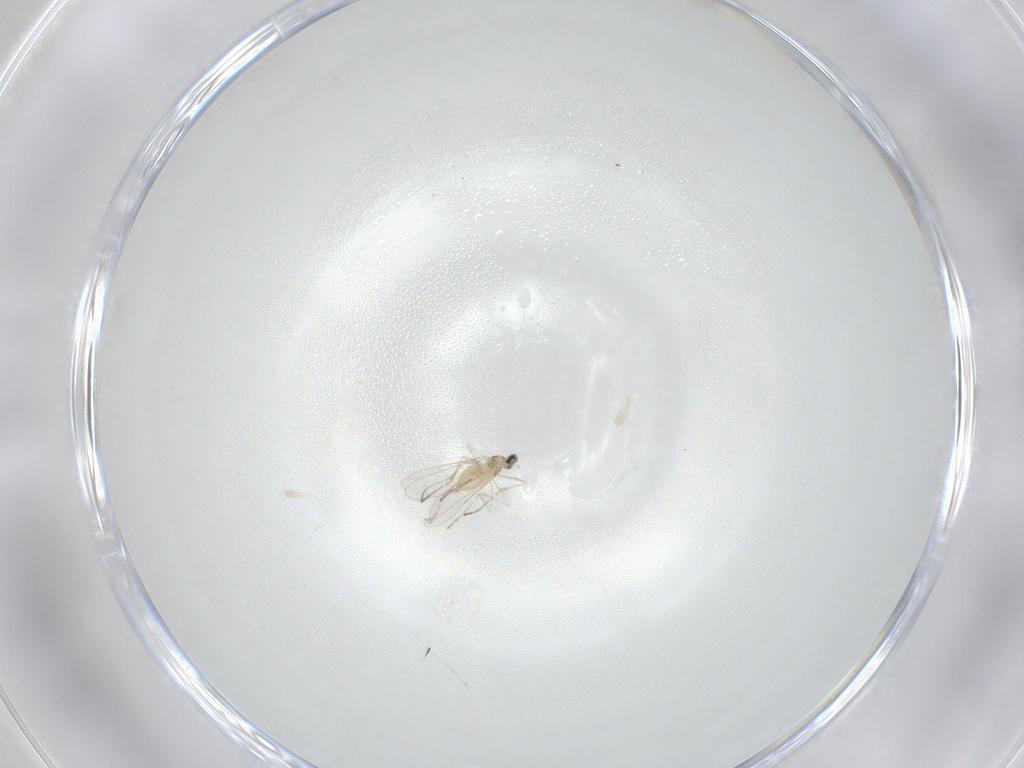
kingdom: Animalia
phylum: Arthropoda
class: Insecta
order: Diptera
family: Cecidomyiidae
